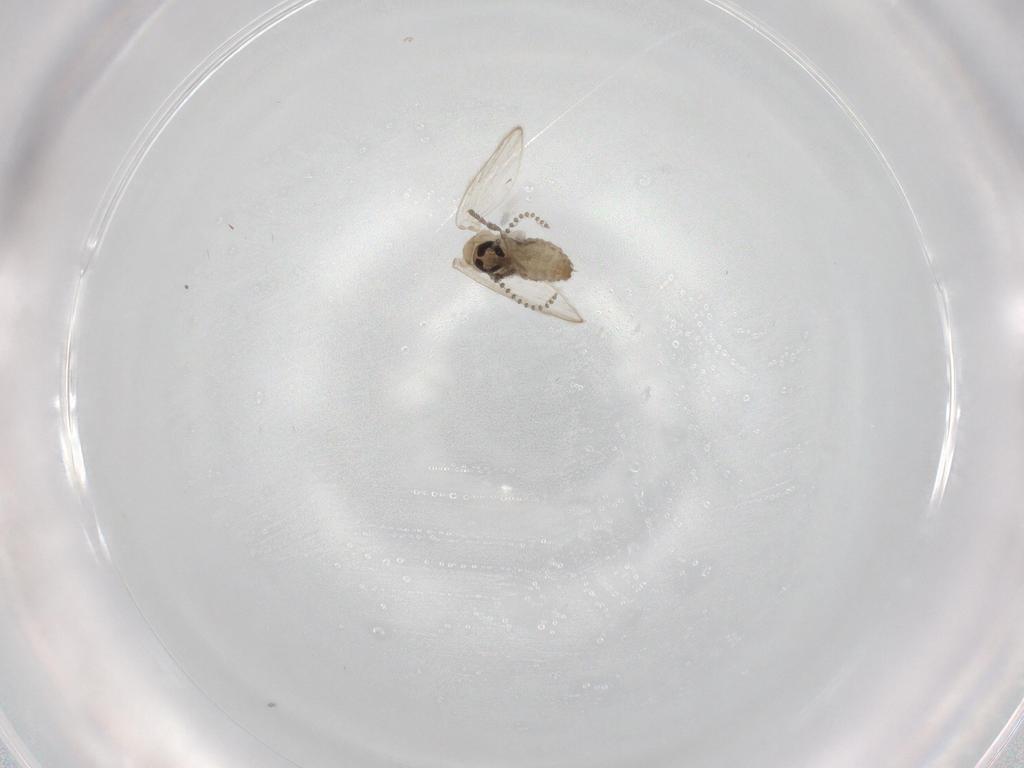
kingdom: Animalia
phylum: Arthropoda
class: Insecta
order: Diptera
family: Psychodidae
